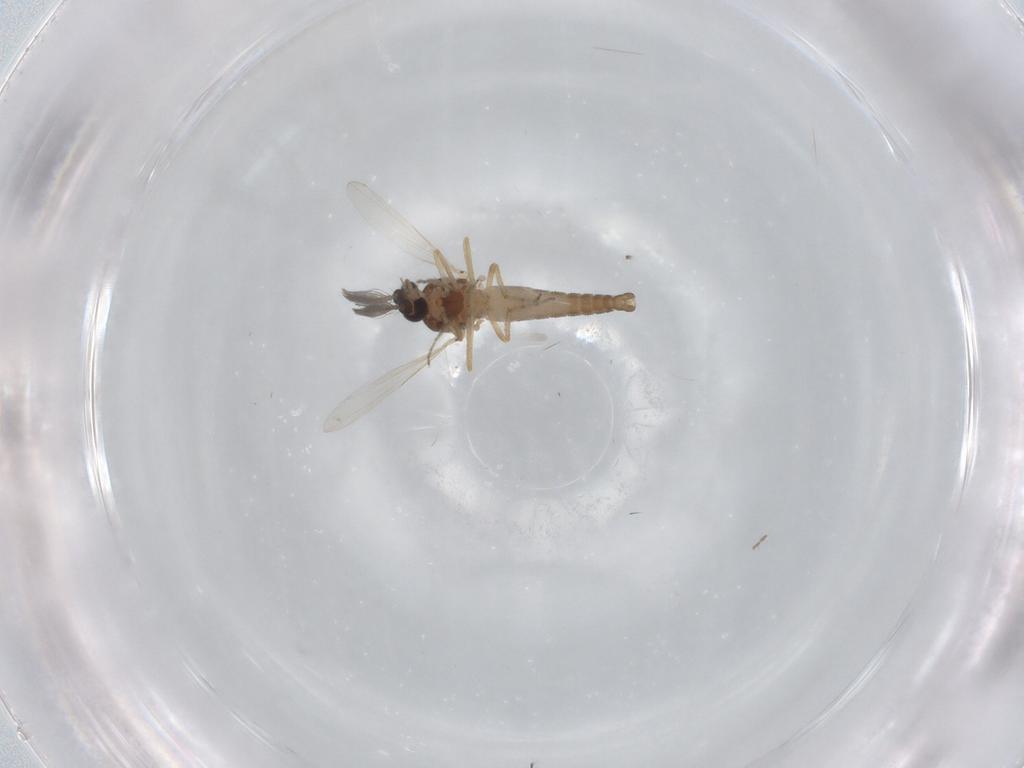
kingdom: Animalia
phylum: Arthropoda
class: Insecta
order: Diptera
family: Ceratopogonidae
